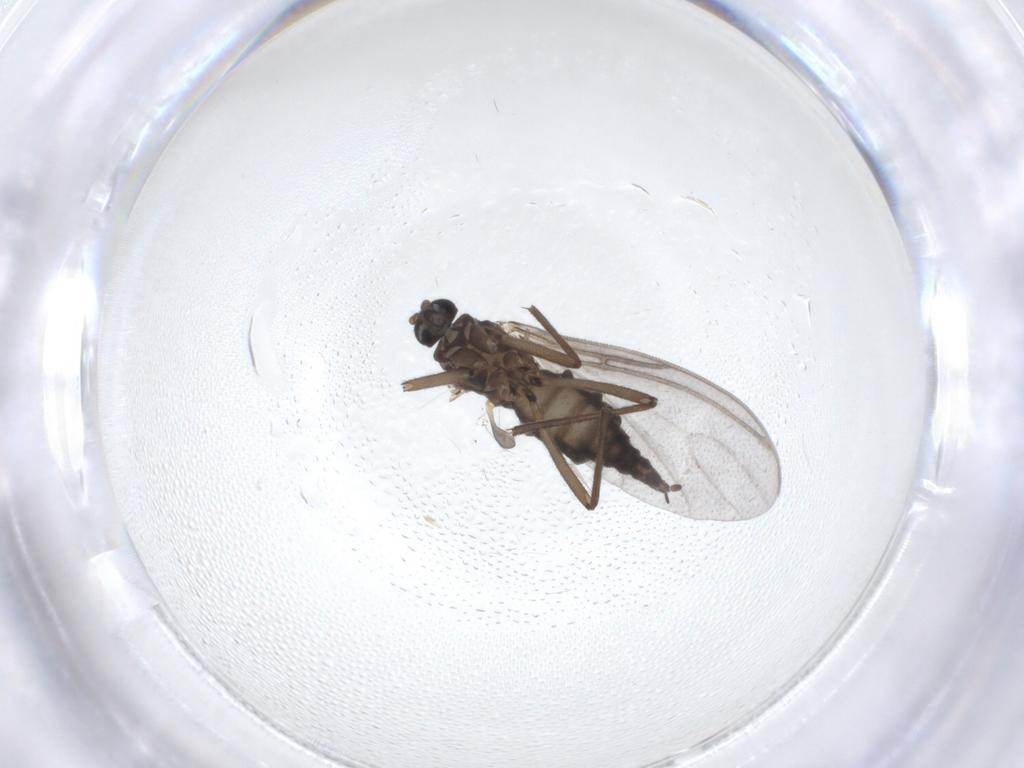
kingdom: Animalia
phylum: Arthropoda
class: Insecta
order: Diptera
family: Sciaridae
